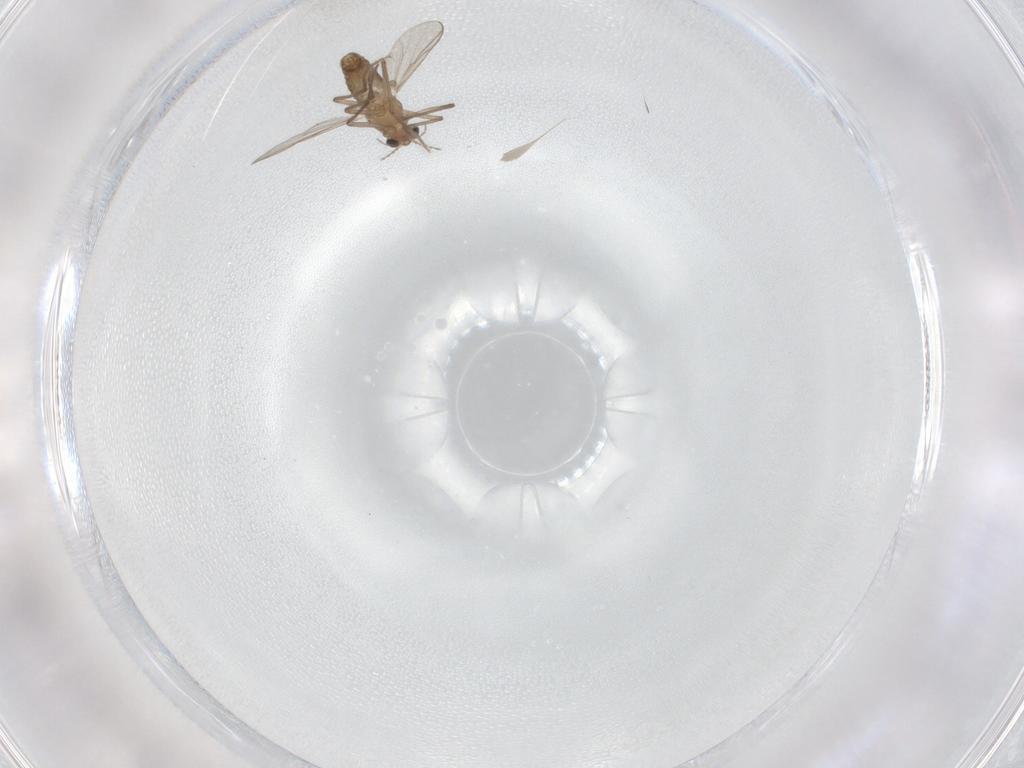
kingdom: Animalia
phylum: Arthropoda
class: Insecta
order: Diptera
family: Chironomidae
